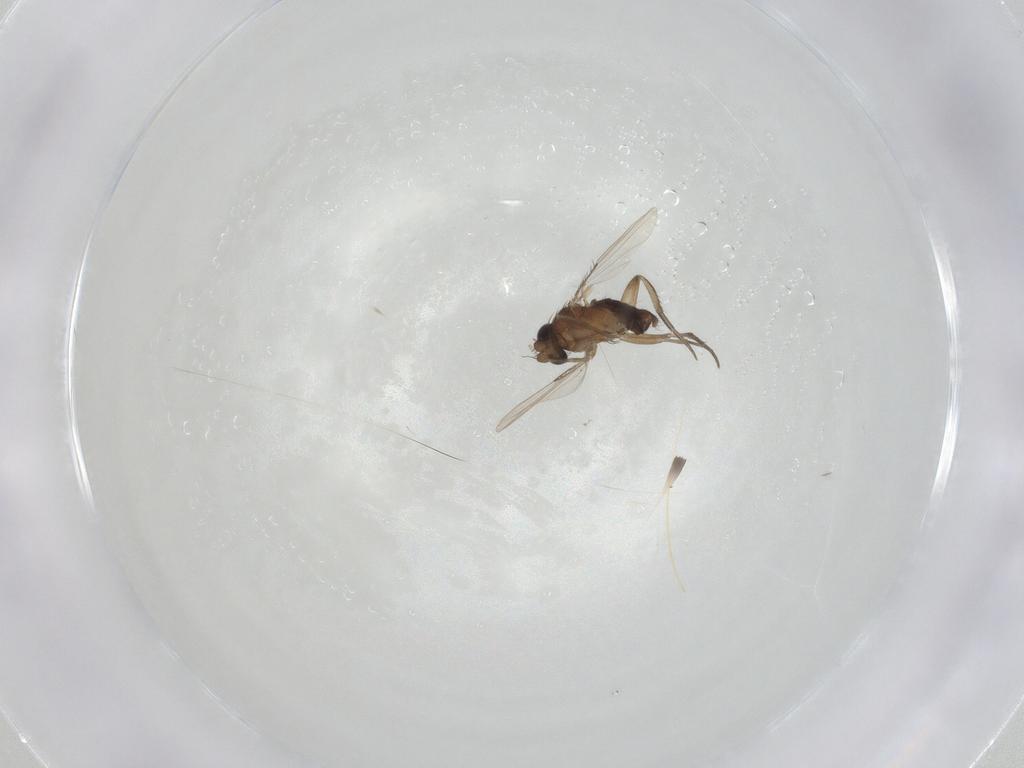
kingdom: Animalia
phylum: Arthropoda
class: Insecta
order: Diptera
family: Phoridae
